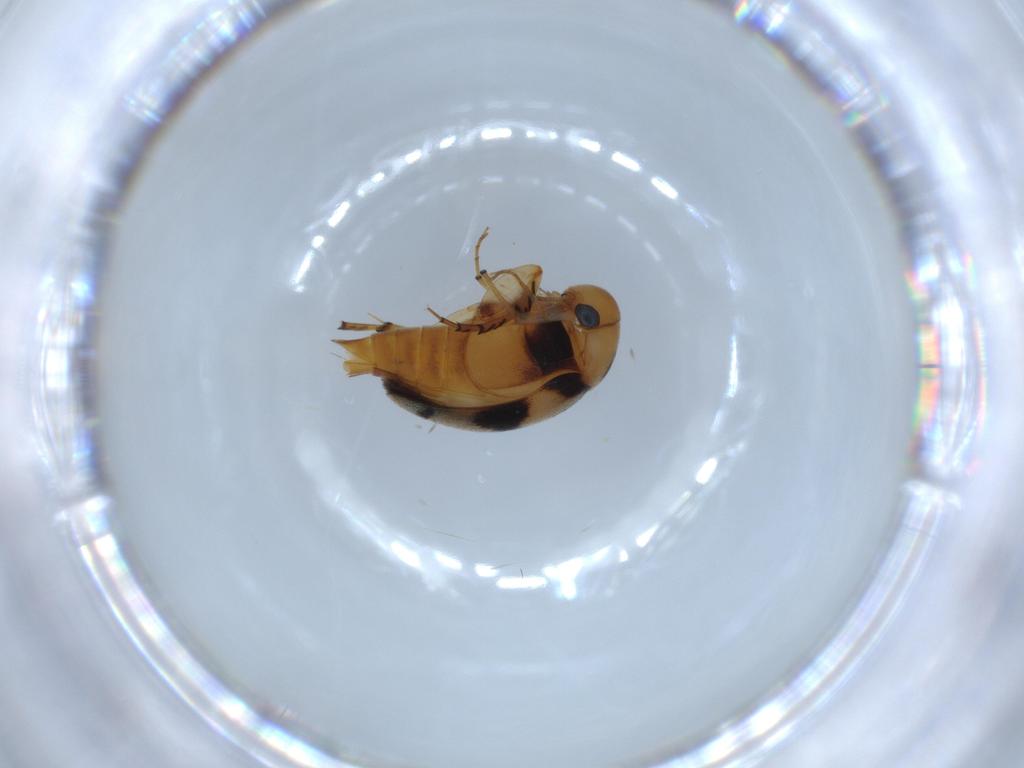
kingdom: Animalia
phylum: Arthropoda
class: Insecta
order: Coleoptera
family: Mordellidae
